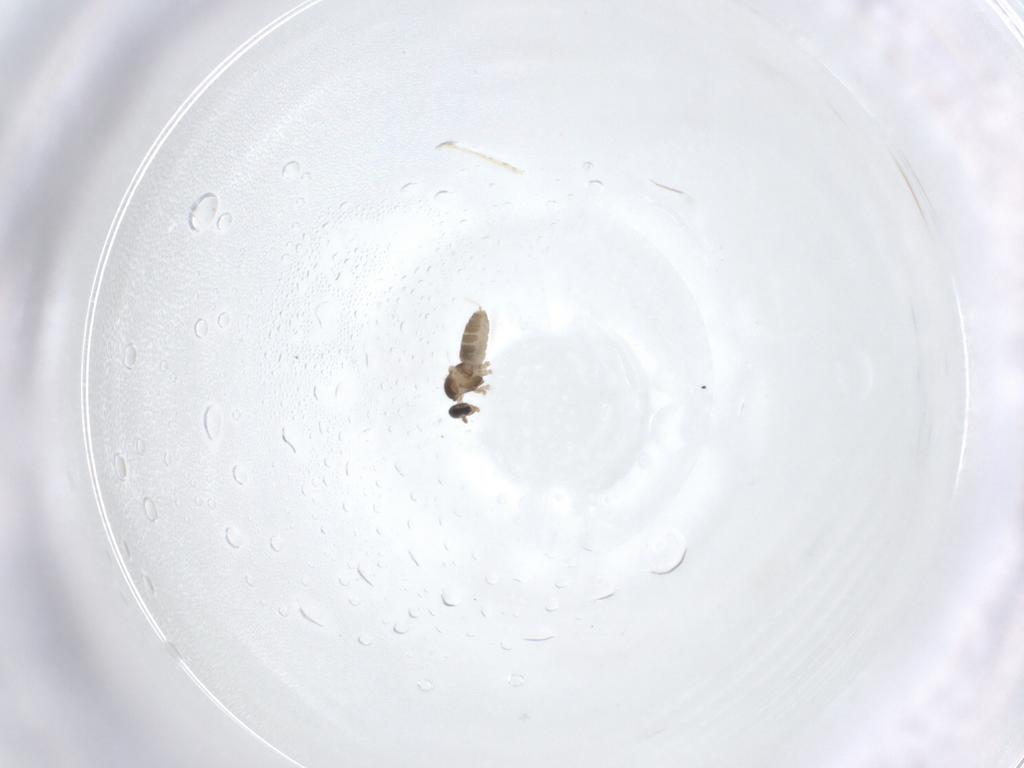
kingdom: Animalia
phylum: Arthropoda
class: Insecta
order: Diptera
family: Cecidomyiidae
